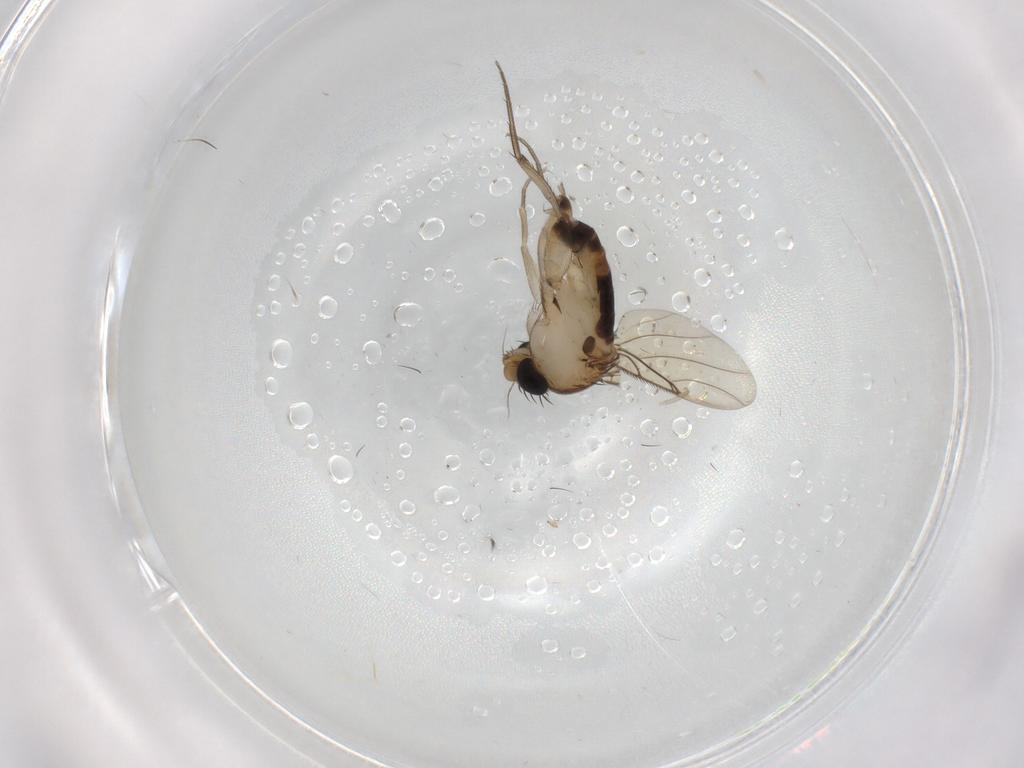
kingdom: Animalia
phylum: Arthropoda
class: Insecta
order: Diptera
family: Phoridae
